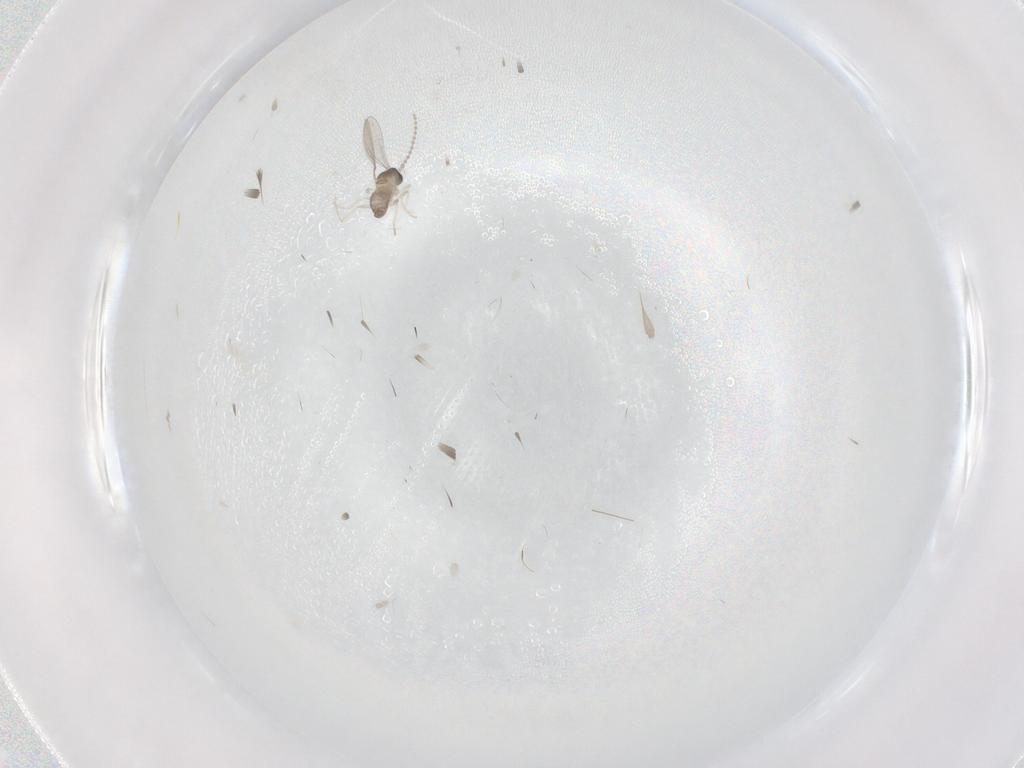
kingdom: Animalia
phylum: Arthropoda
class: Insecta
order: Diptera
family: Cecidomyiidae
